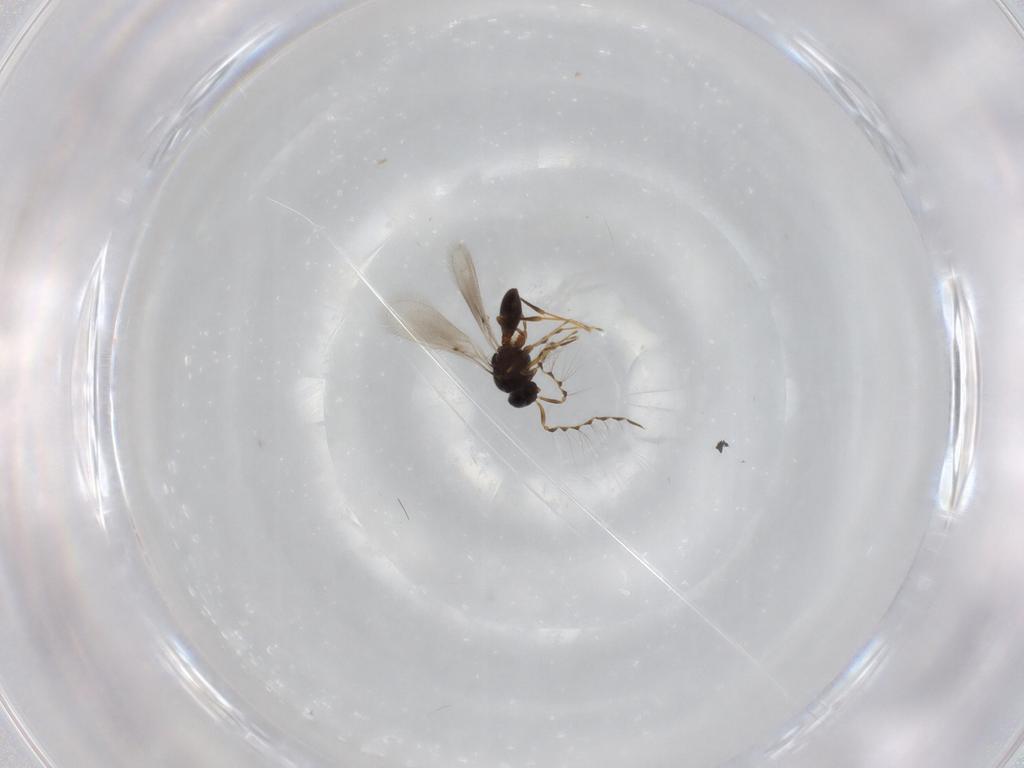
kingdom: Animalia
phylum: Arthropoda
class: Insecta
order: Hymenoptera
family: Platygastridae
